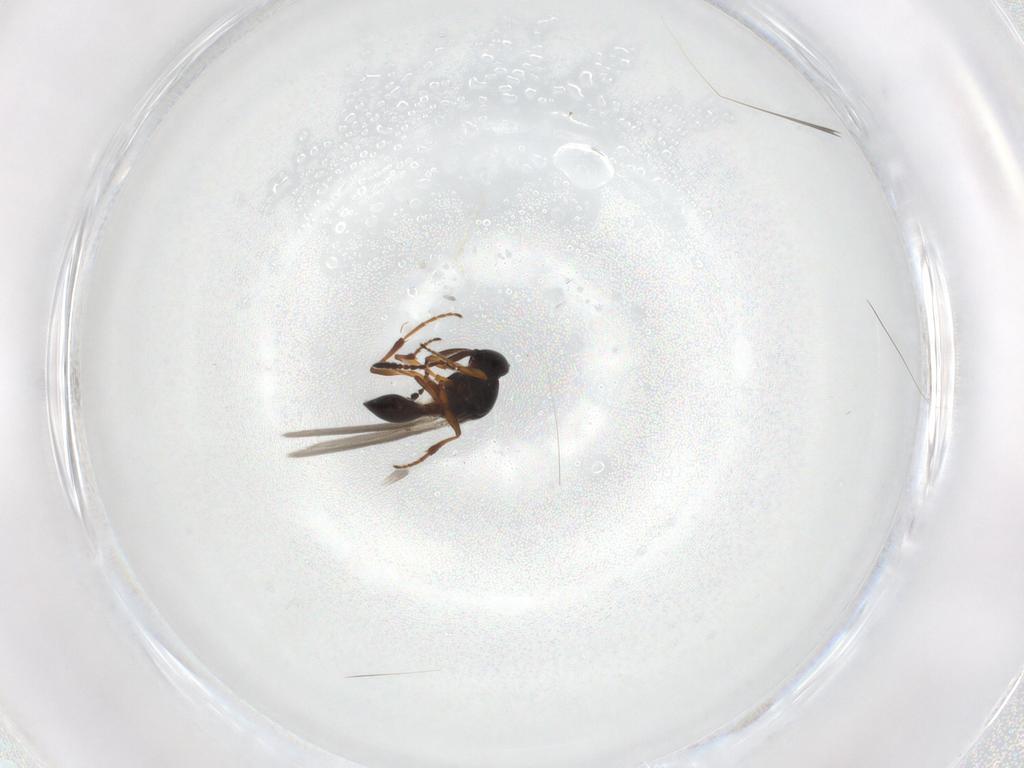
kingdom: Animalia
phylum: Arthropoda
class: Insecta
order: Hymenoptera
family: Platygastridae
